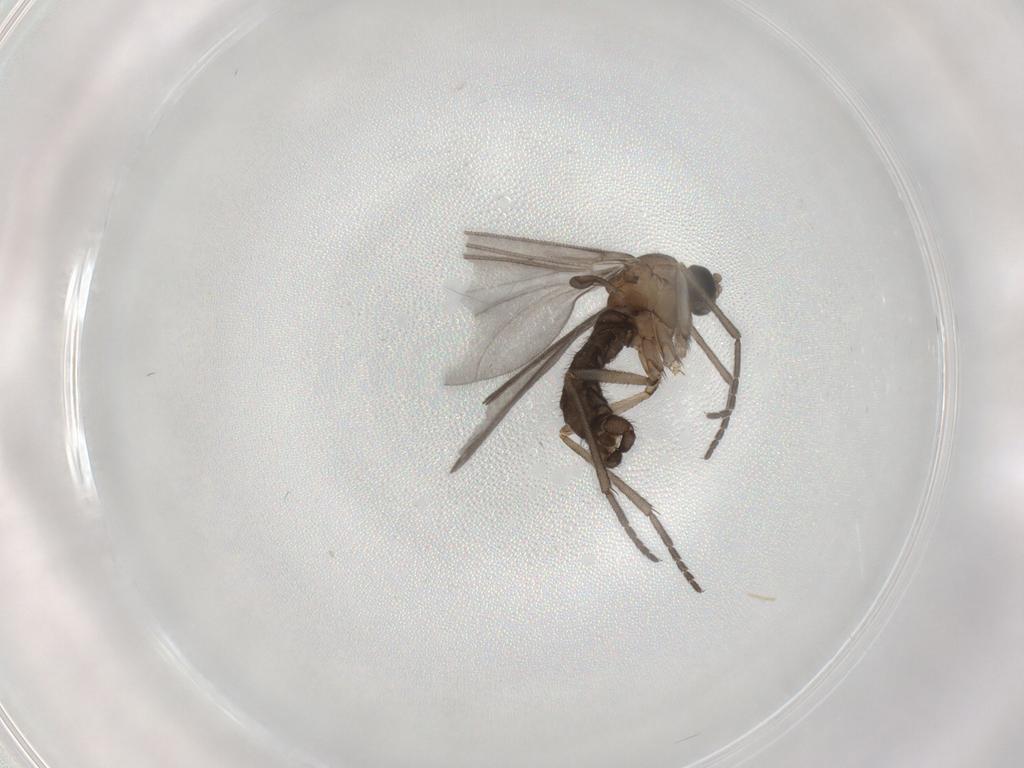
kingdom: Animalia
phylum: Arthropoda
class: Insecta
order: Diptera
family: Sciaridae
